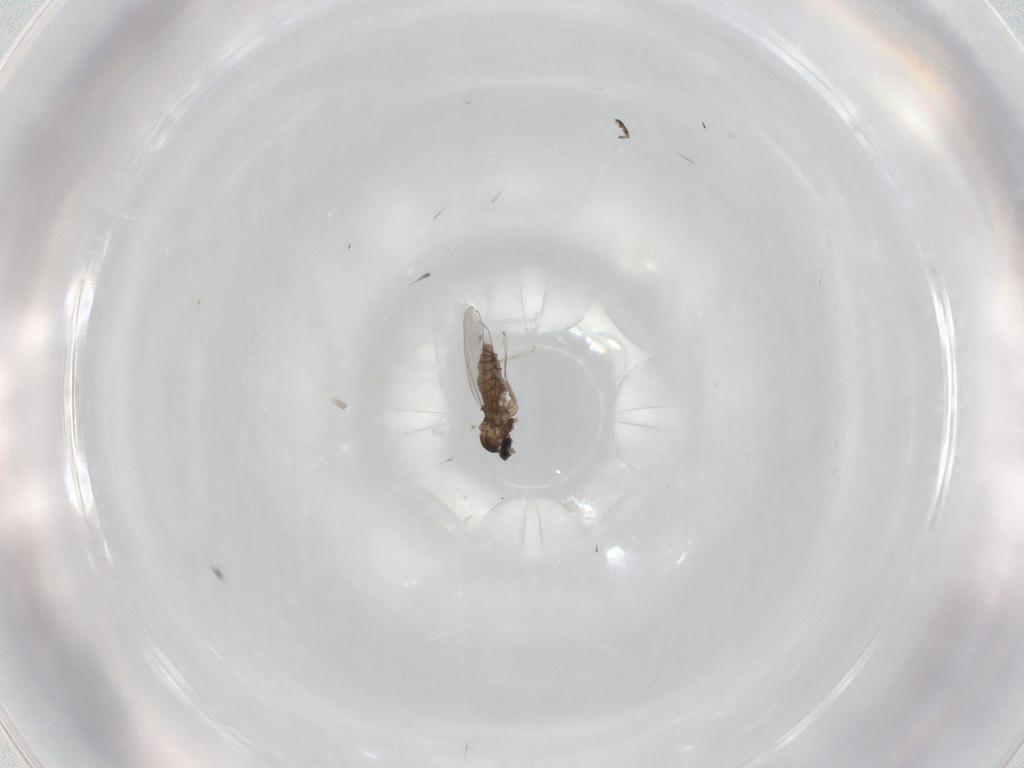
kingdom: Animalia
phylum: Arthropoda
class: Insecta
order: Diptera
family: Cecidomyiidae
